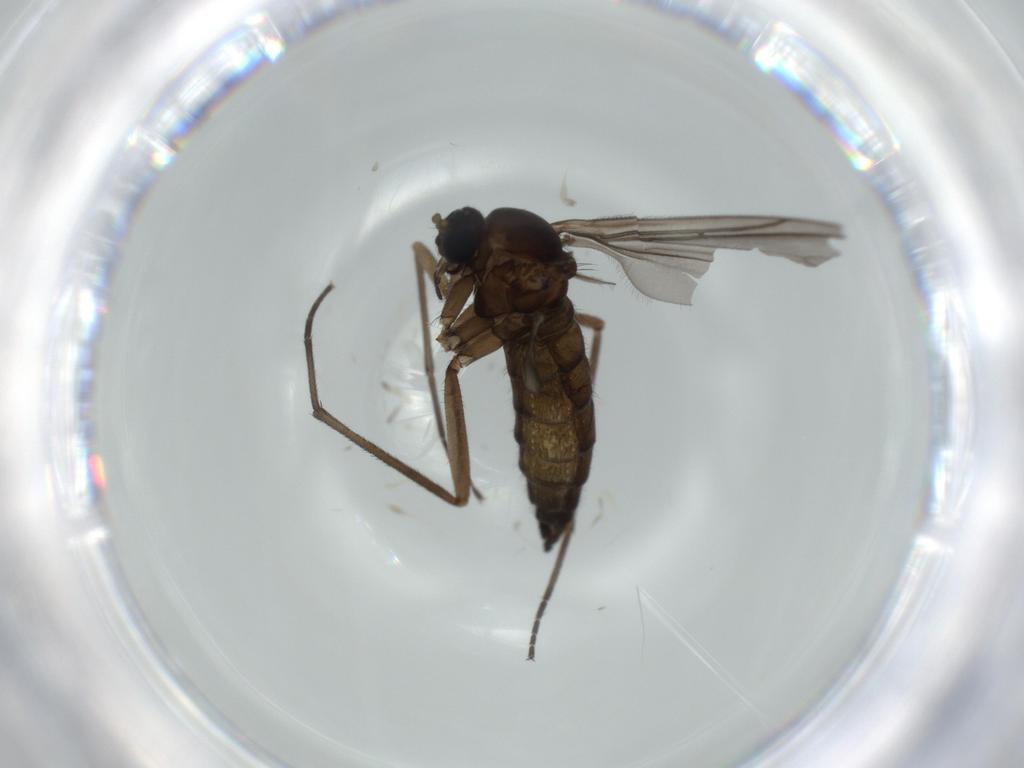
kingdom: Animalia
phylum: Arthropoda
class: Insecta
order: Diptera
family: Sciaridae
